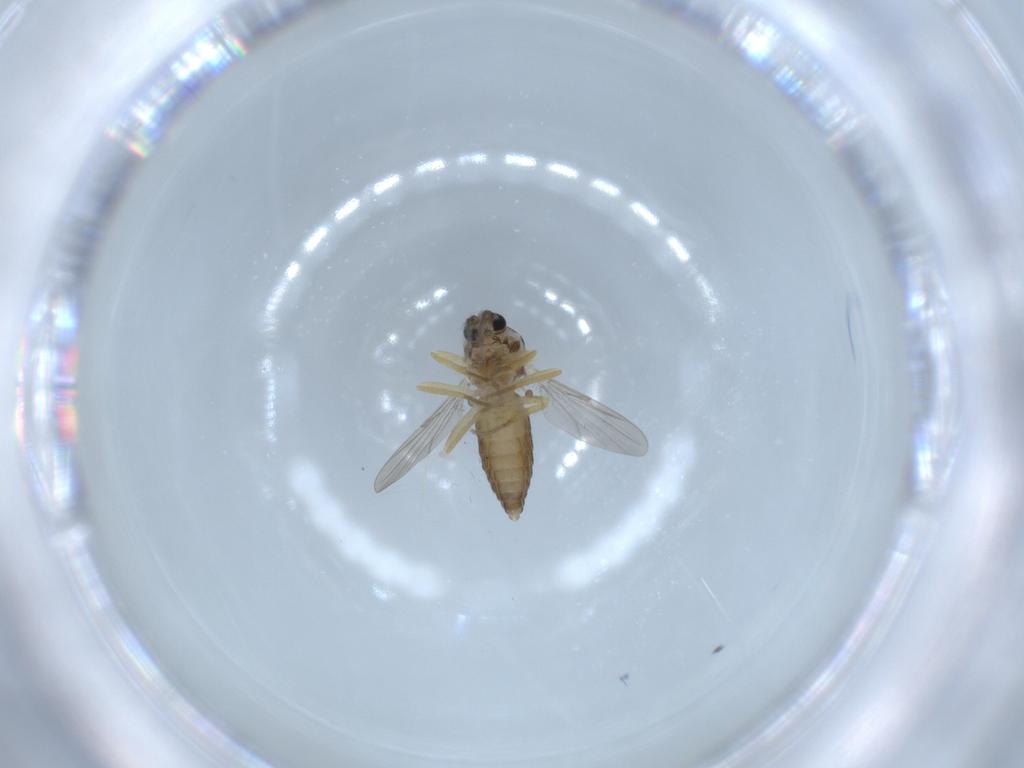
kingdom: Animalia
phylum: Arthropoda
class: Insecta
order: Diptera
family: Ceratopogonidae
